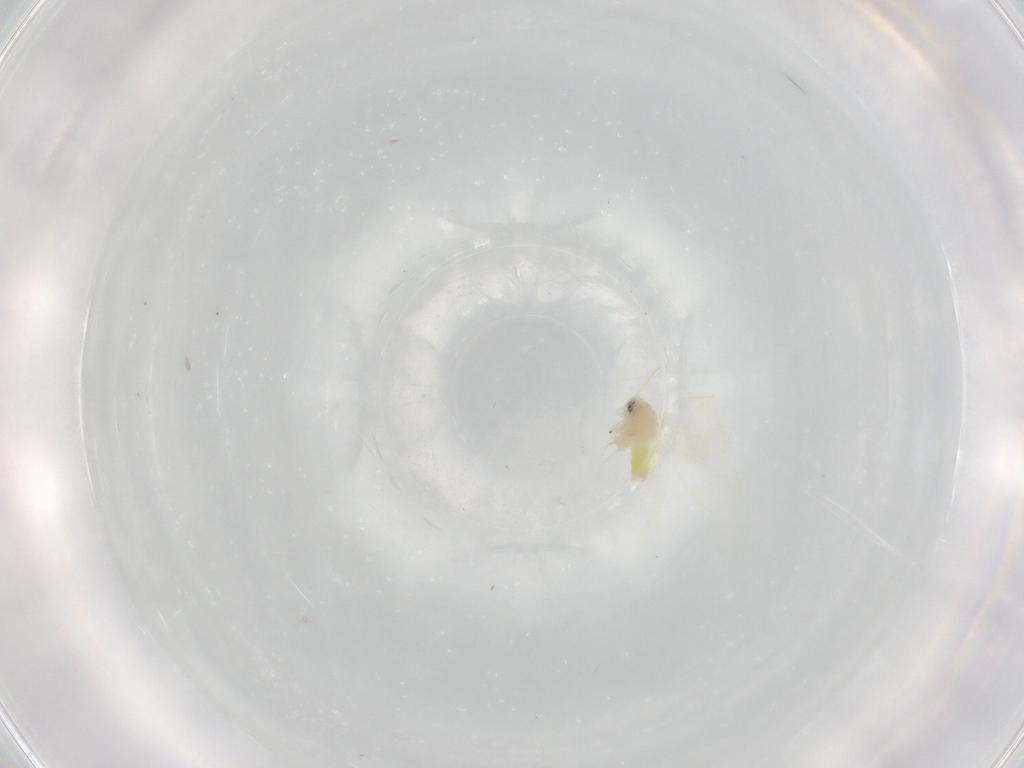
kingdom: Animalia
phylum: Arthropoda
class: Insecta
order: Hemiptera
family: Aleyrodidae
